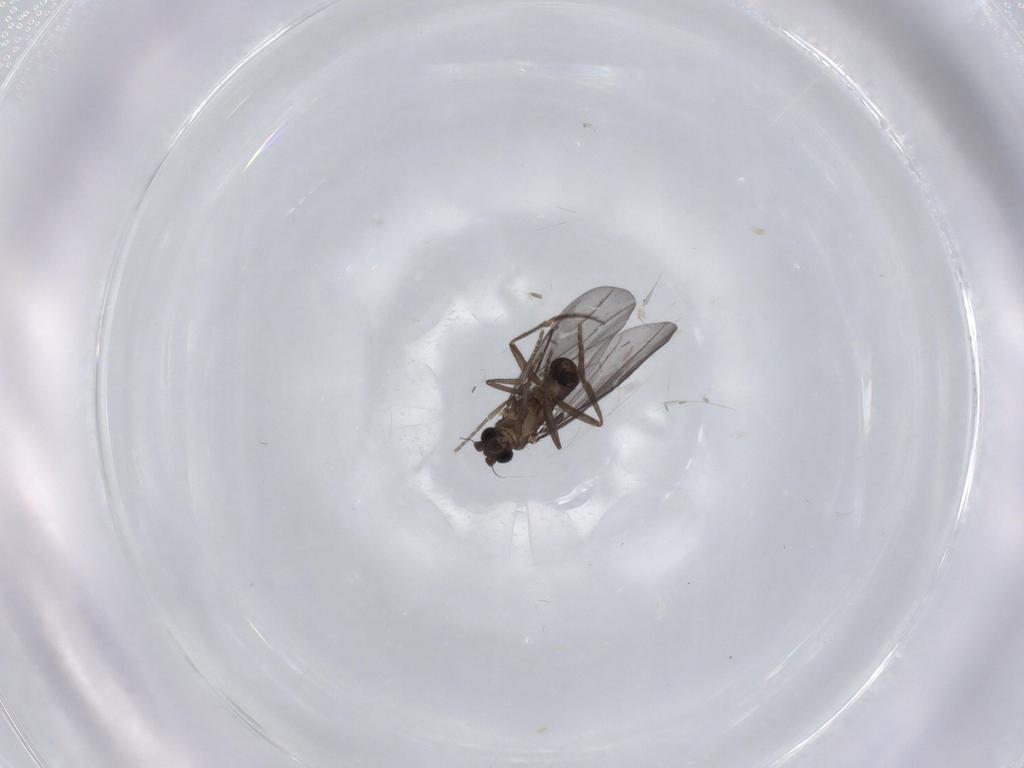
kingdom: Animalia
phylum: Arthropoda
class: Insecta
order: Diptera
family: Phoridae
